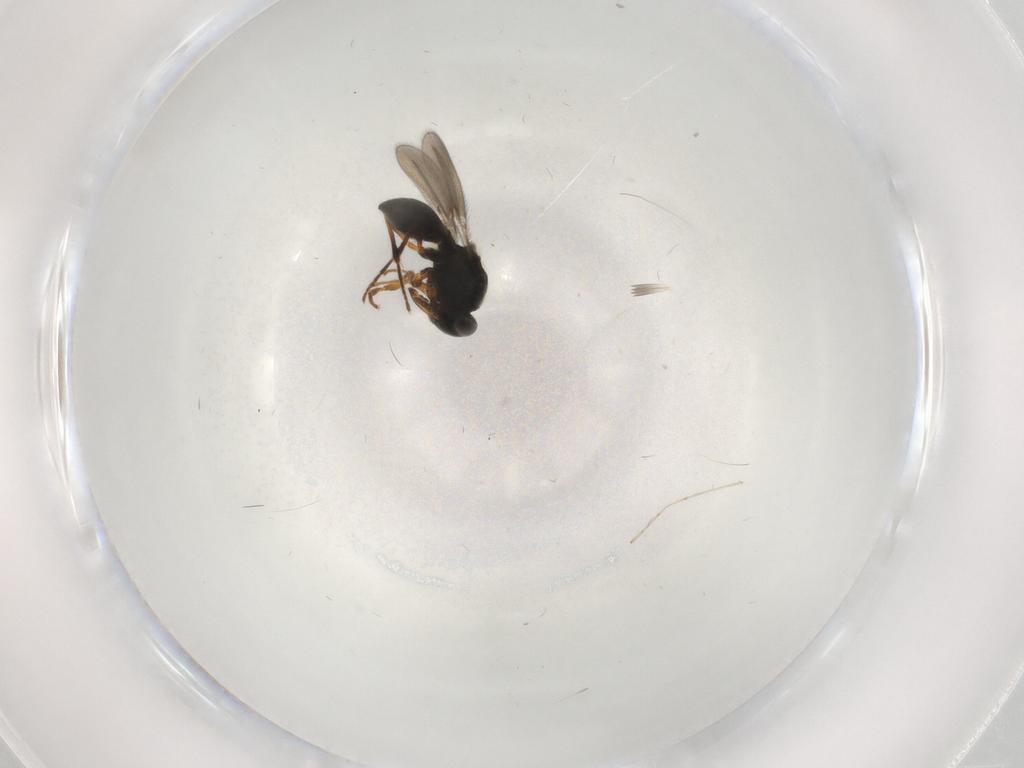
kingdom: Animalia
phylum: Arthropoda
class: Insecta
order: Hymenoptera
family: Platygastridae
